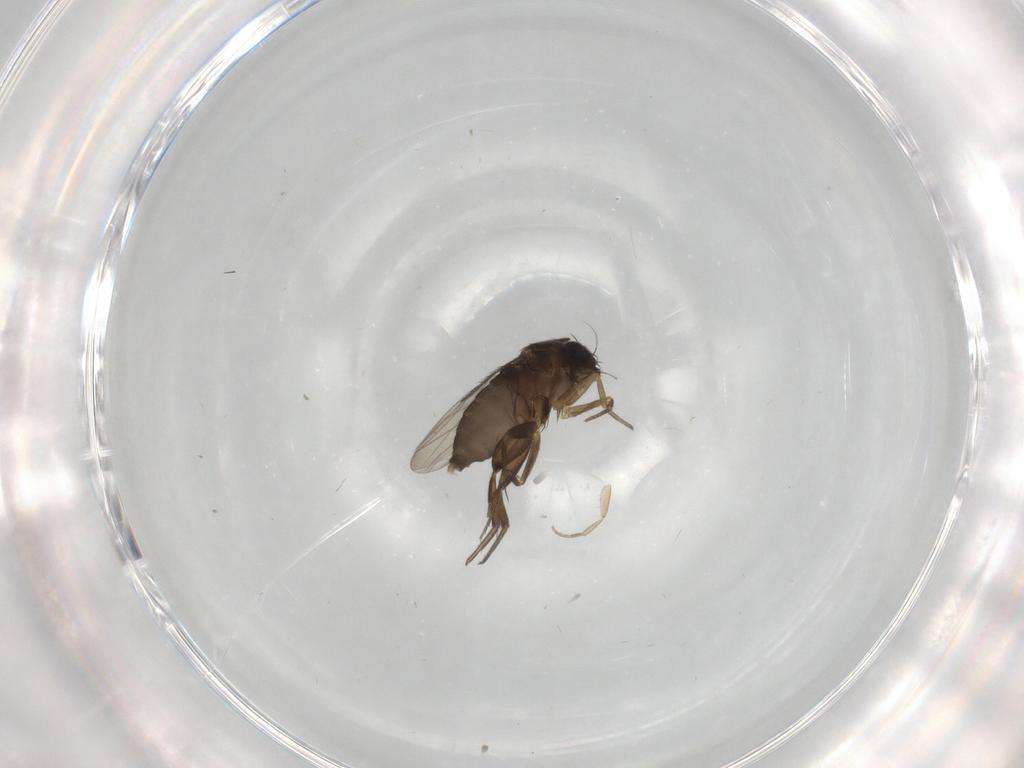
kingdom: Animalia
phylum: Arthropoda
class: Insecta
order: Diptera
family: Phoridae
